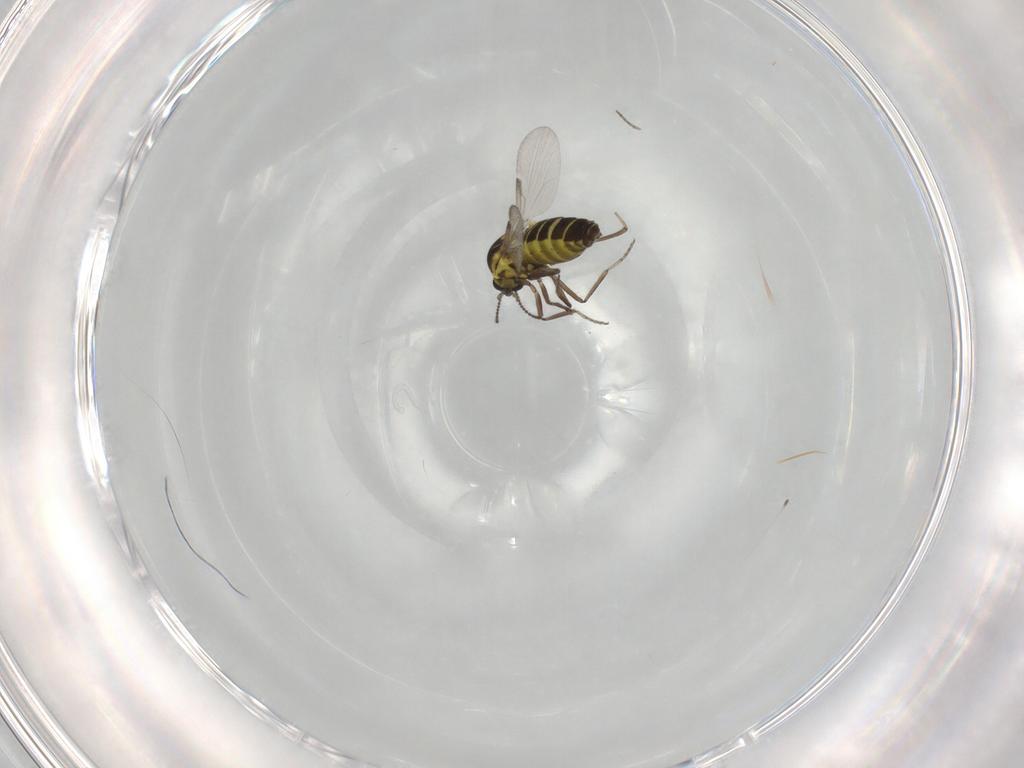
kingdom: Animalia
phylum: Arthropoda
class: Insecta
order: Diptera
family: Ceratopogonidae
